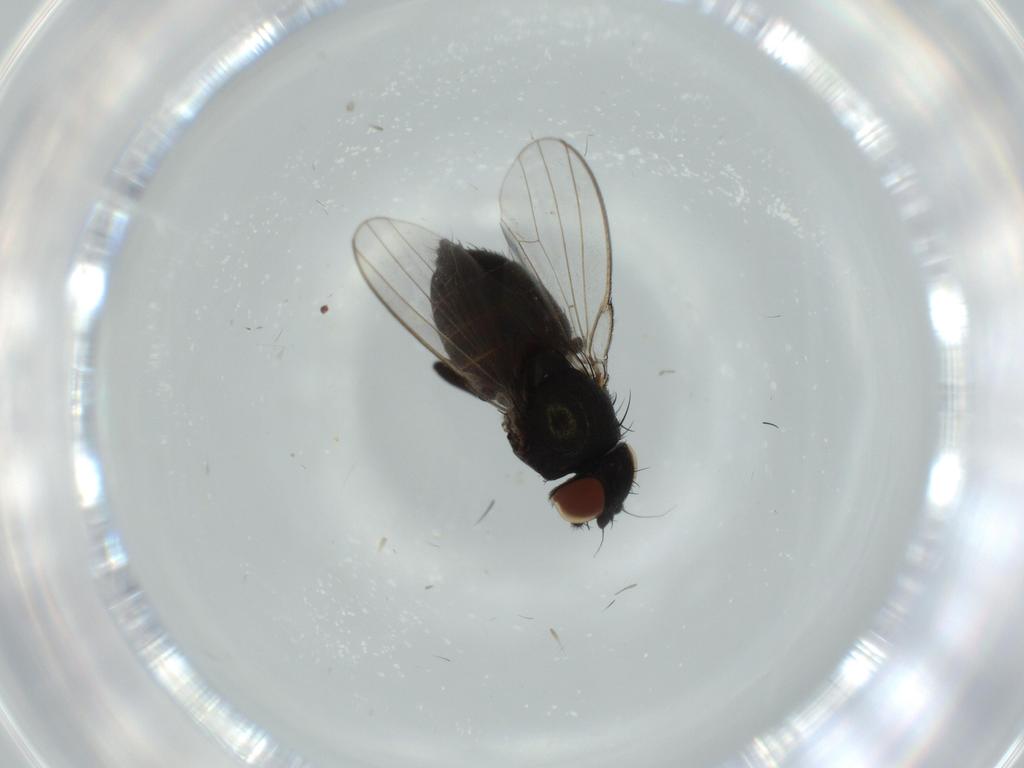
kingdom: Animalia
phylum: Arthropoda
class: Insecta
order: Diptera
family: Milichiidae
